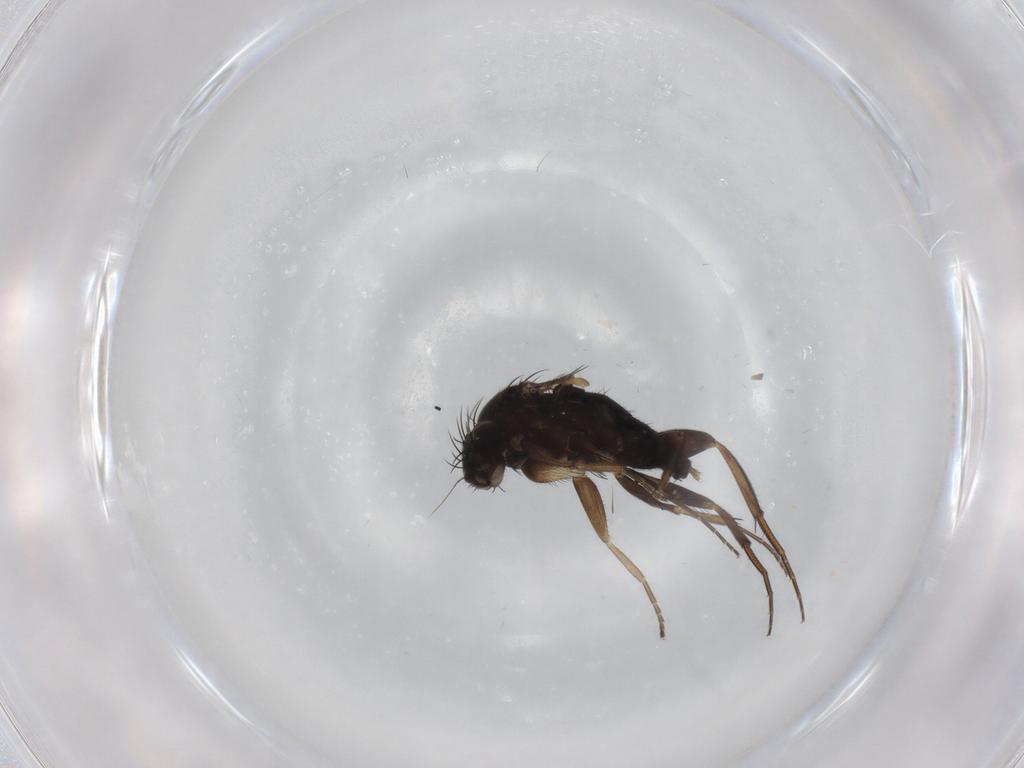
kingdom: Animalia
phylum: Arthropoda
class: Insecta
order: Diptera
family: Phoridae
